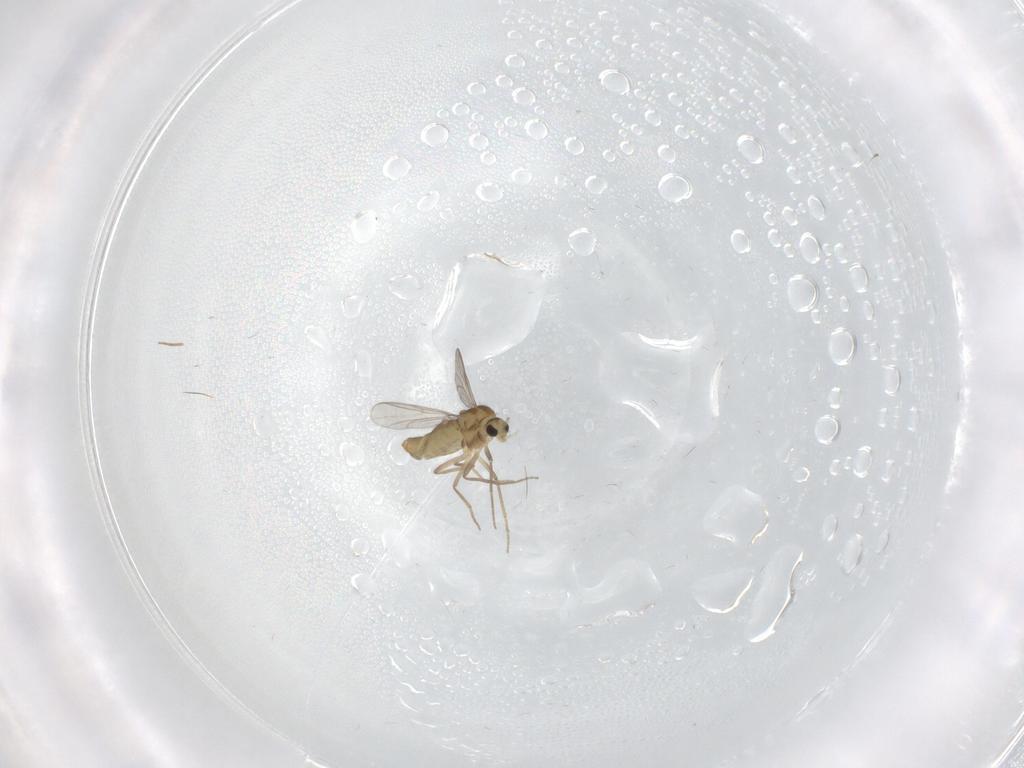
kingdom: Animalia
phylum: Arthropoda
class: Insecta
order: Diptera
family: Chironomidae
